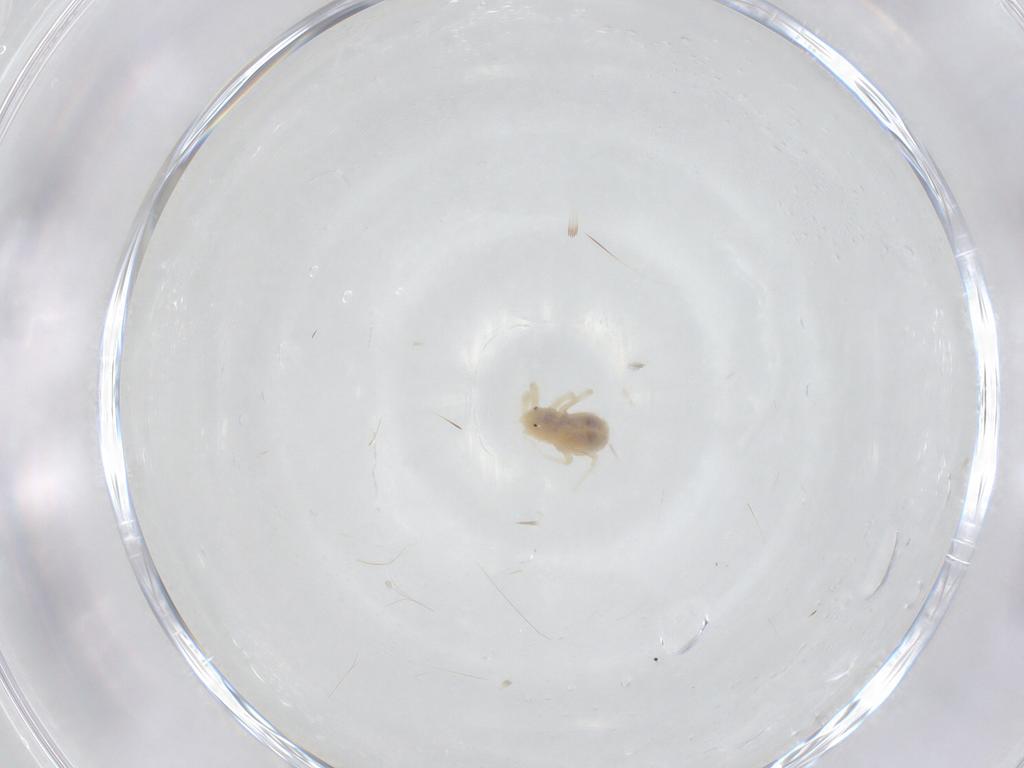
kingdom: Animalia
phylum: Arthropoda
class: Arachnida
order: Trombidiformes
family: Anystidae
